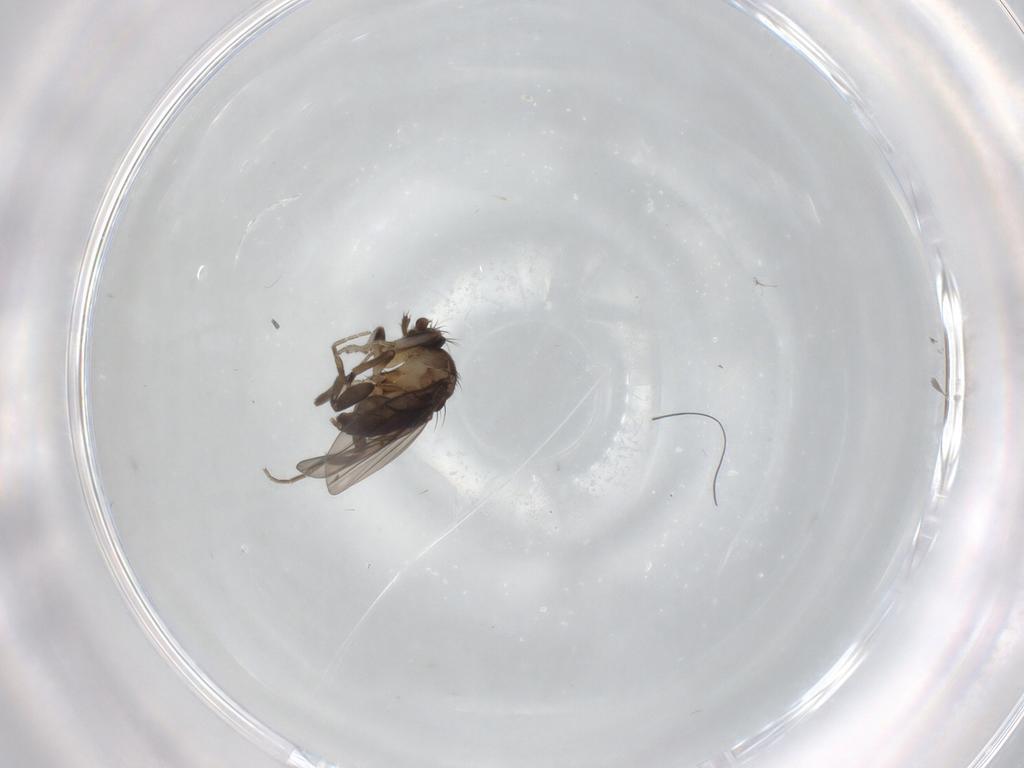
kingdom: Animalia
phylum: Arthropoda
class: Insecta
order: Diptera
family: Phoridae
